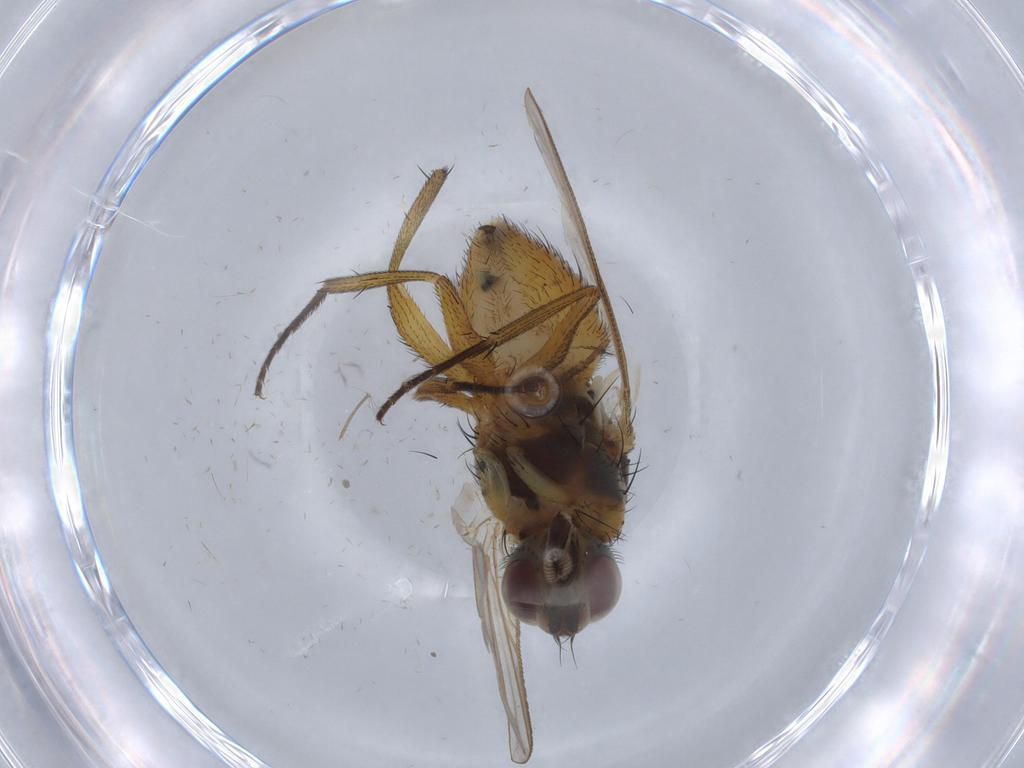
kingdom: Animalia
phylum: Arthropoda
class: Insecta
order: Diptera
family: Muscidae
